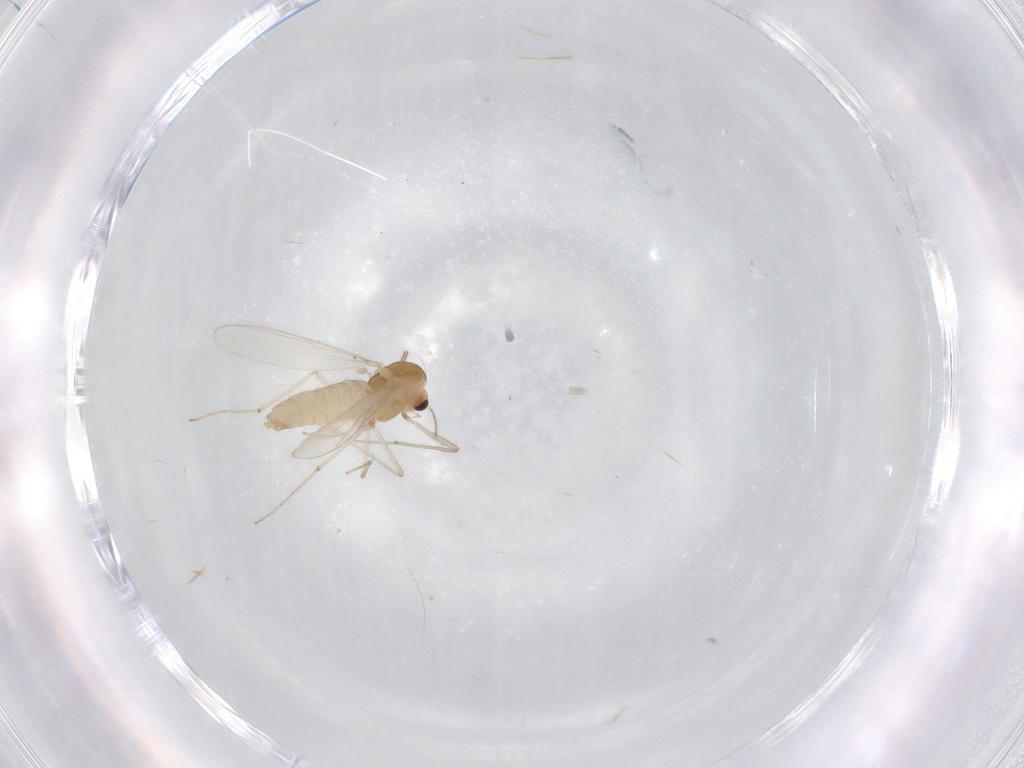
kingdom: Animalia
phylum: Arthropoda
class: Insecta
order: Diptera
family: Chironomidae
